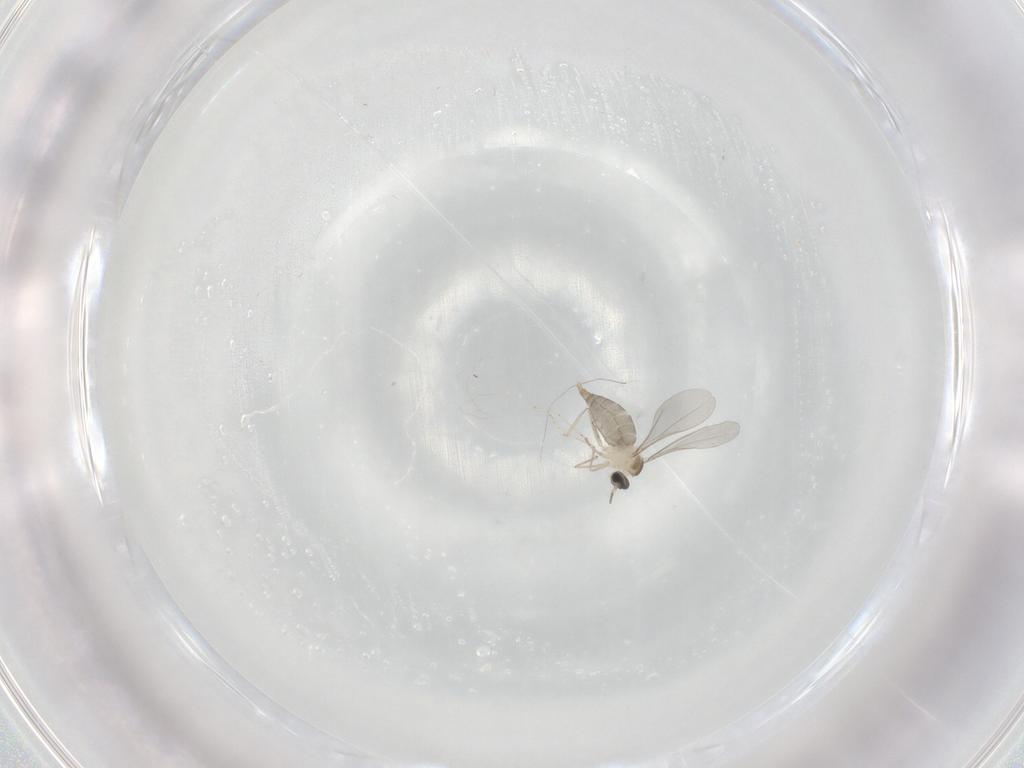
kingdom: Animalia
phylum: Arthropoda
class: Insecta
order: Diptera
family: Cecidomyiidae
